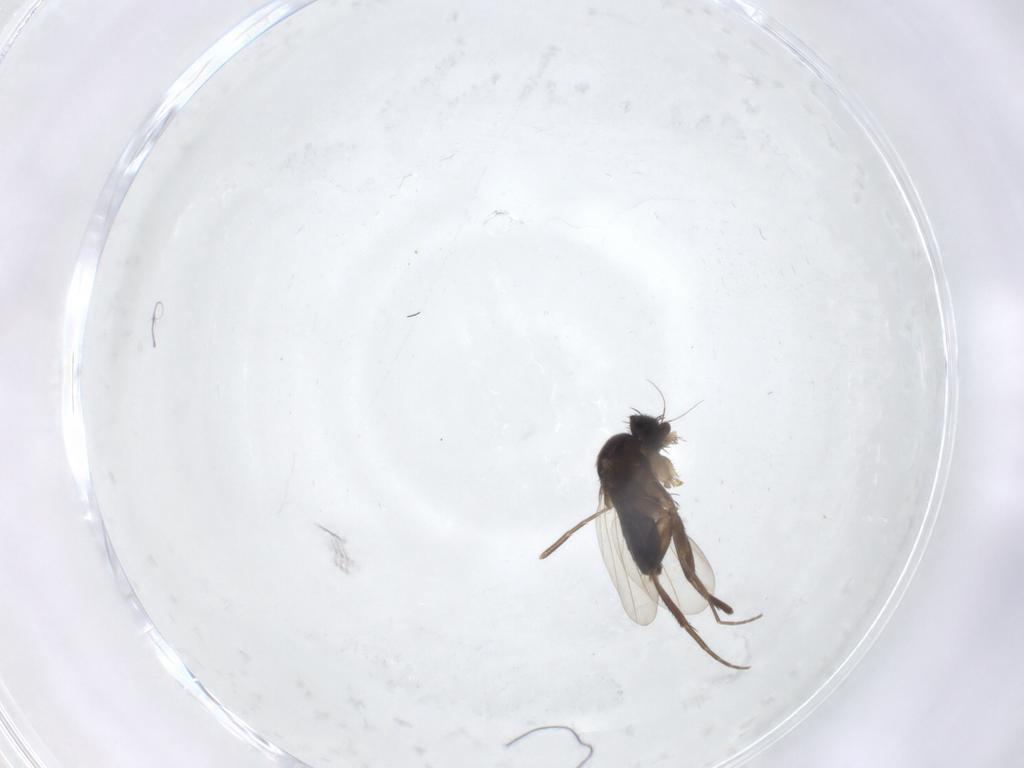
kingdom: Animalia
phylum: Arthropoda
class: Insecta
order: Diptera
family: Phoridae
